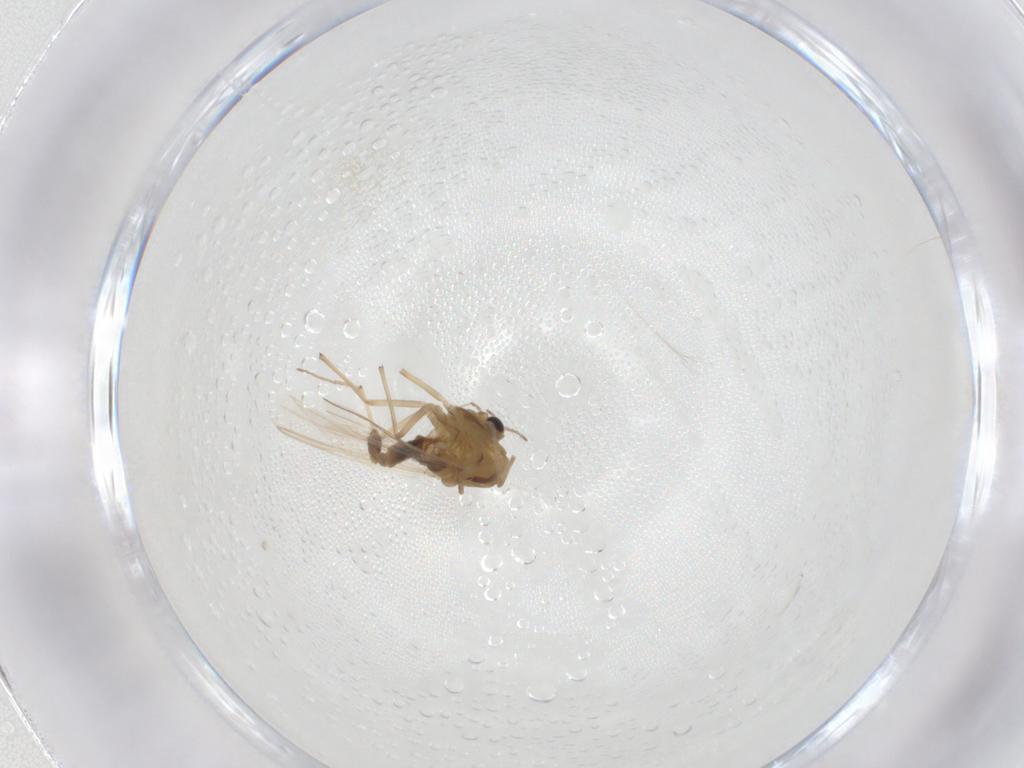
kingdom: Animalia
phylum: Arthropoda
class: Insecta
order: Diptera
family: Chironomidae
